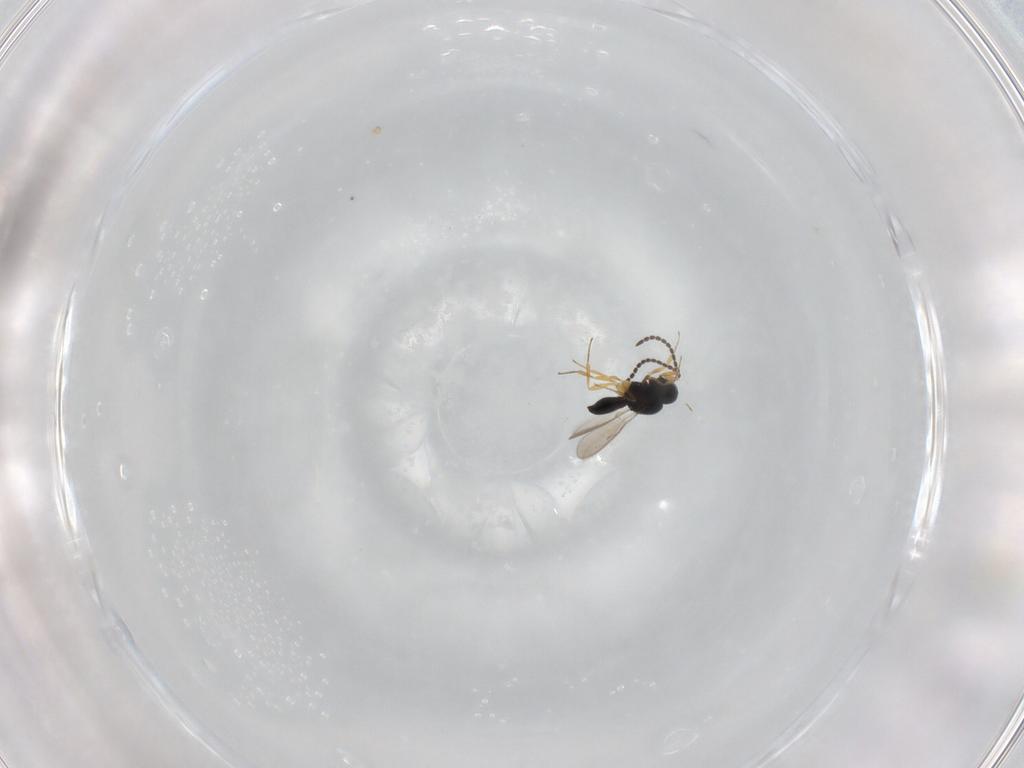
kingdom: Animalia
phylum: Arthropoda
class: Insecta
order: Hymenoptera
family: Scelionidae
